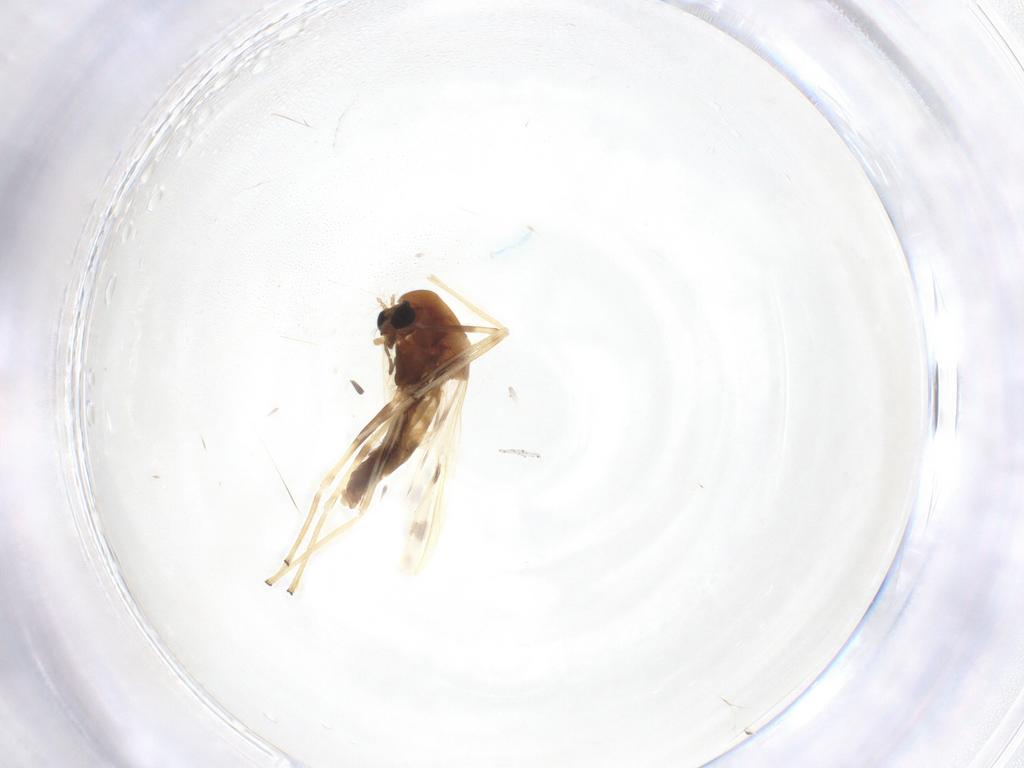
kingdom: Animalia
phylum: Arthropoda
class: Insecta
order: Diptera
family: Chironomidae
